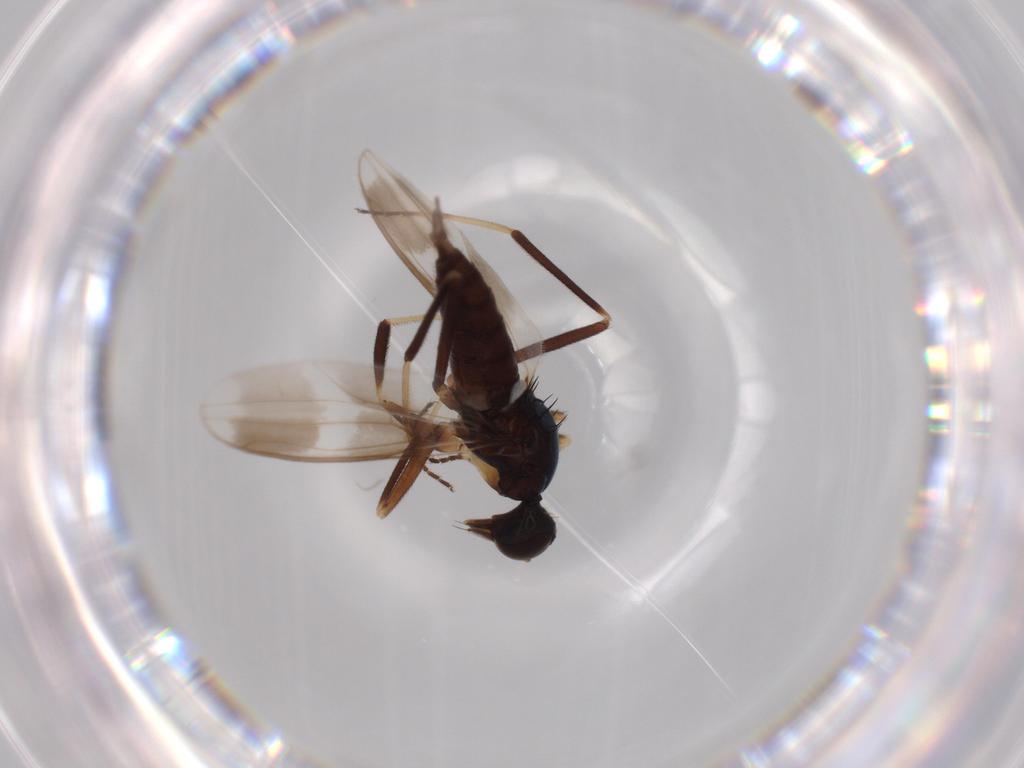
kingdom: Animalia
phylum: Arthropoda
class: Insecta
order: Diptera
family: Hybotidae
